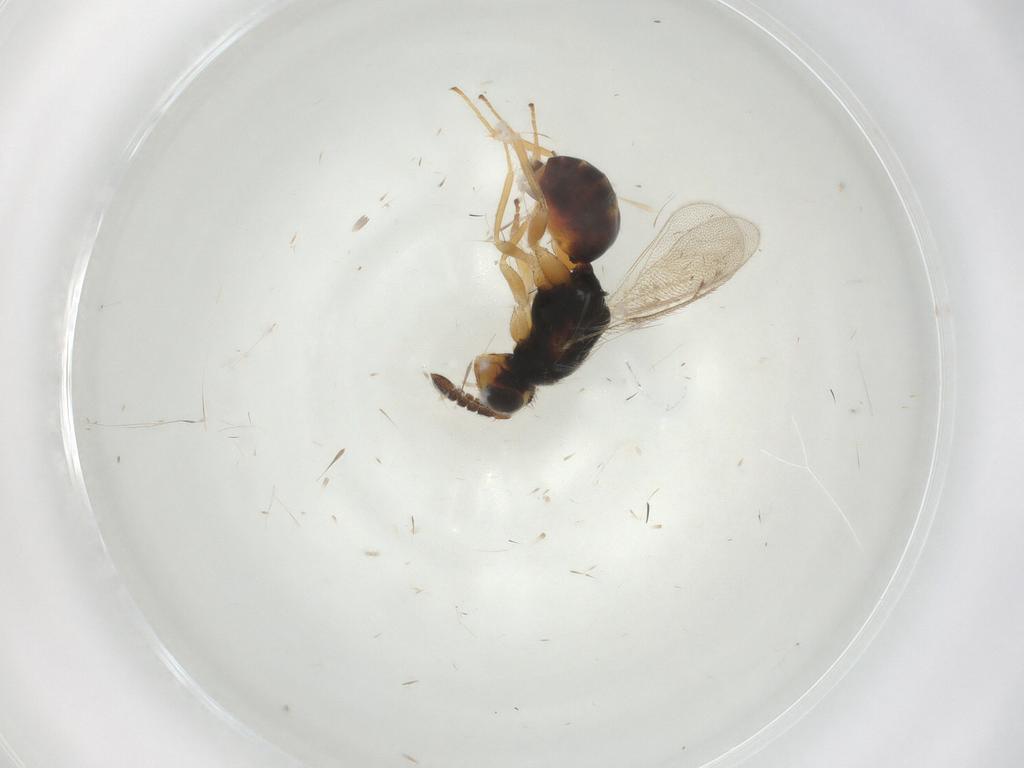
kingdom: Animalia
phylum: Arthropoda
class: Insecta
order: Hymenoptera
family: Eulophidae
